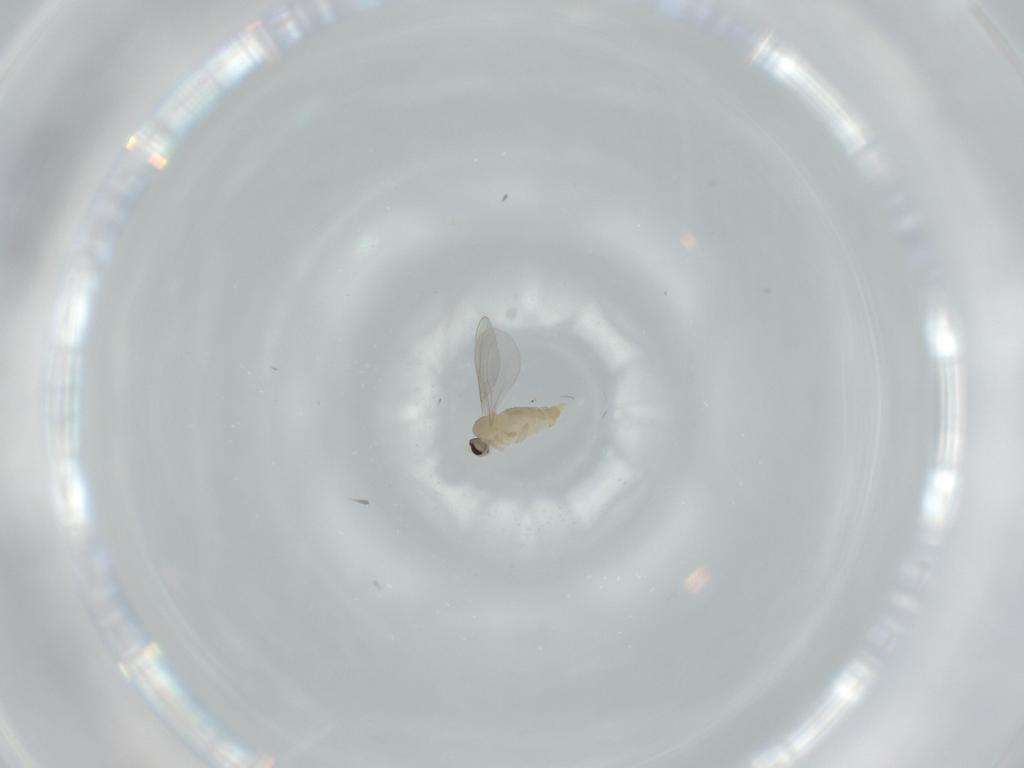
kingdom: Animalia
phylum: Arthropoda
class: Insecta
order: Diptera
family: Cecidomyiidae
